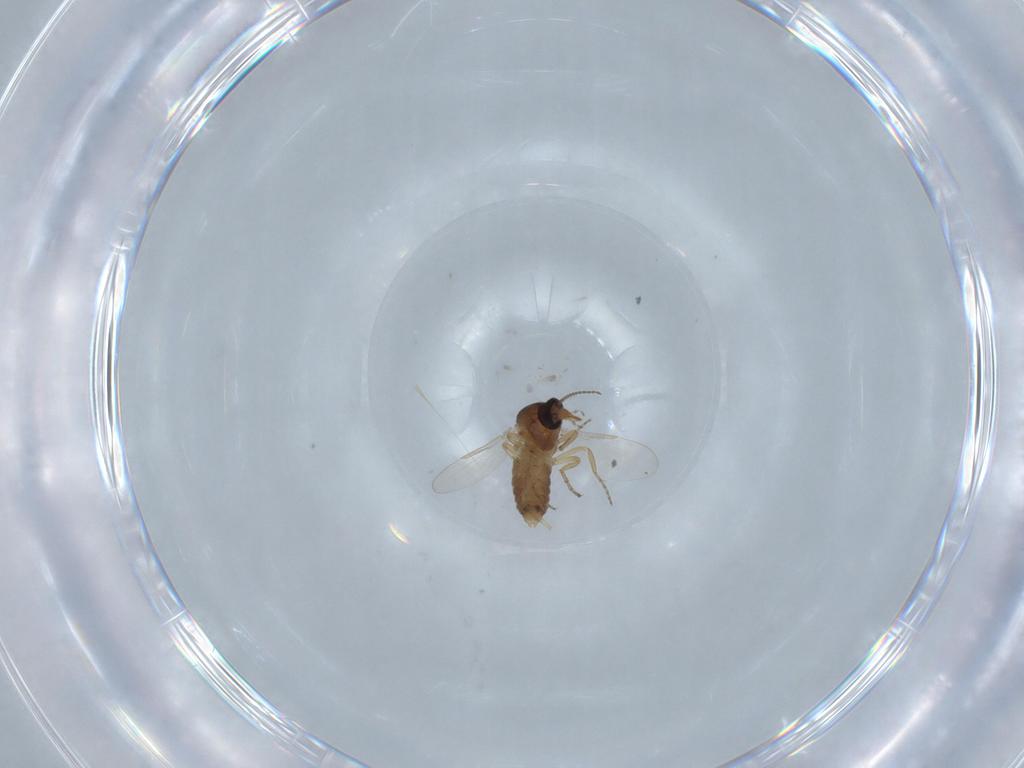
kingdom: Animalia
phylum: Arthropoda
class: Insecta
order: Diptera
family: Ceratopogonidae
